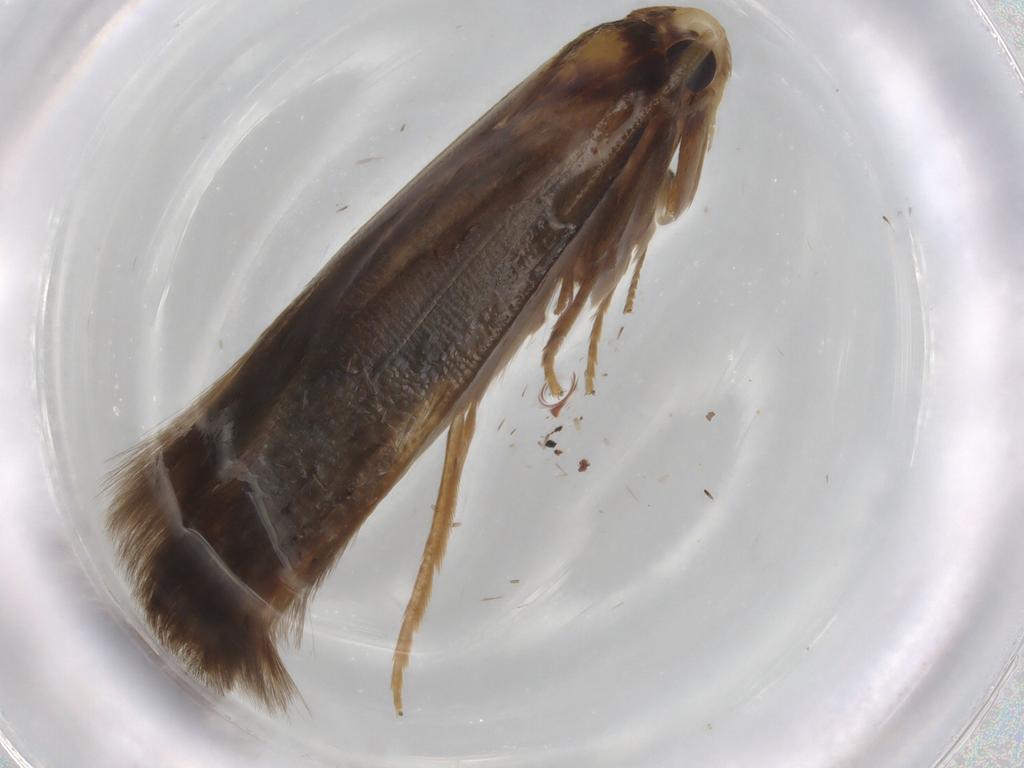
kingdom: Animalia
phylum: Arthropoda
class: Insecta
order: Lepidoptera
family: Tineidae
